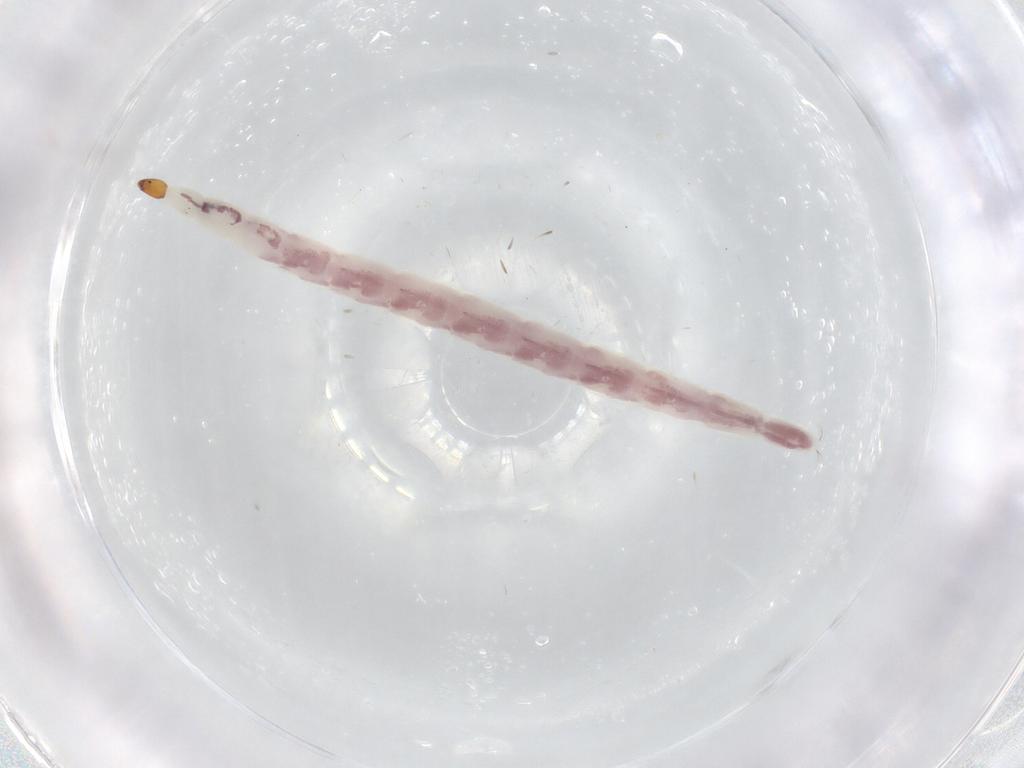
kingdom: Animalia
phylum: Arthropoda
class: Insecta
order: Diptera
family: Ceratopogonidae
